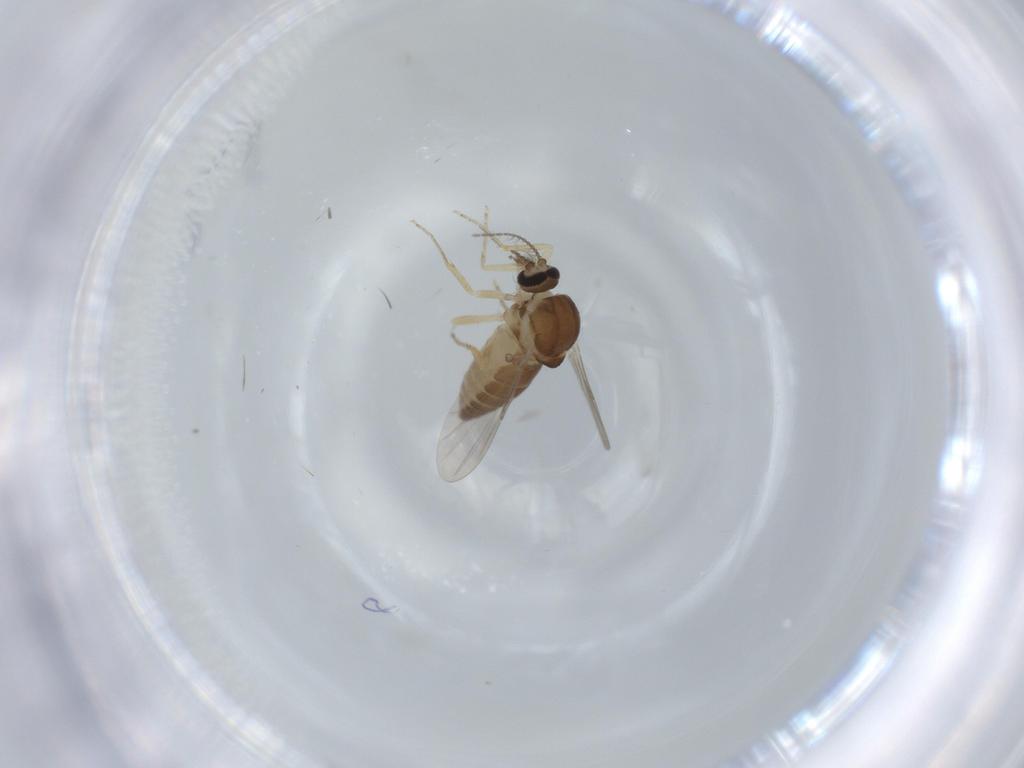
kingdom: Animalia
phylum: Arthropoda
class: Insecta
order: Diptera
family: Ceratopogonidae
